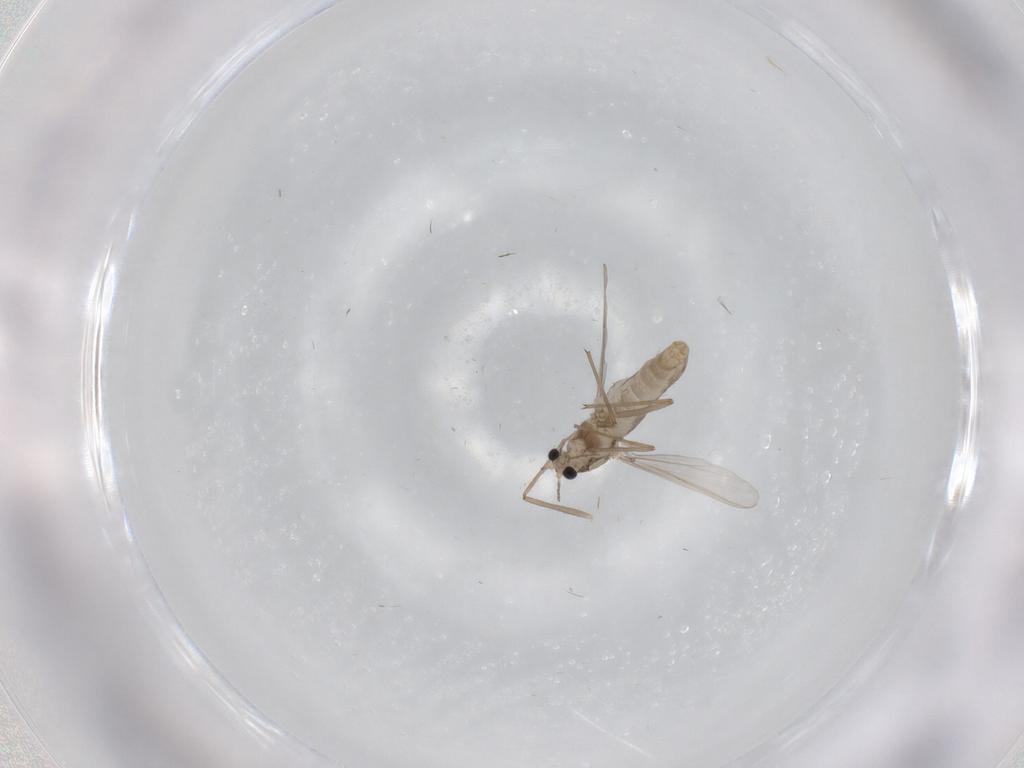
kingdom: Animalia
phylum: Arthropoda
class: Insecta
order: Diptera
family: Chironomidae
